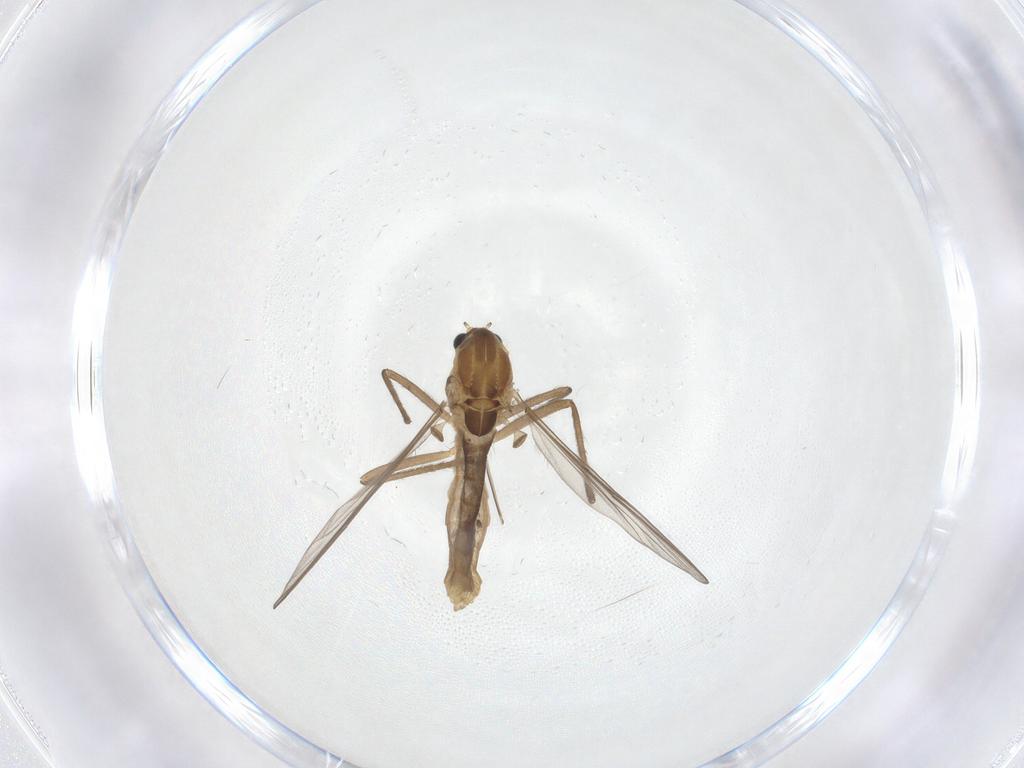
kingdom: Animalia
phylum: Arthropoda
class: Insecta
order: Diptera
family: Chironomidae
